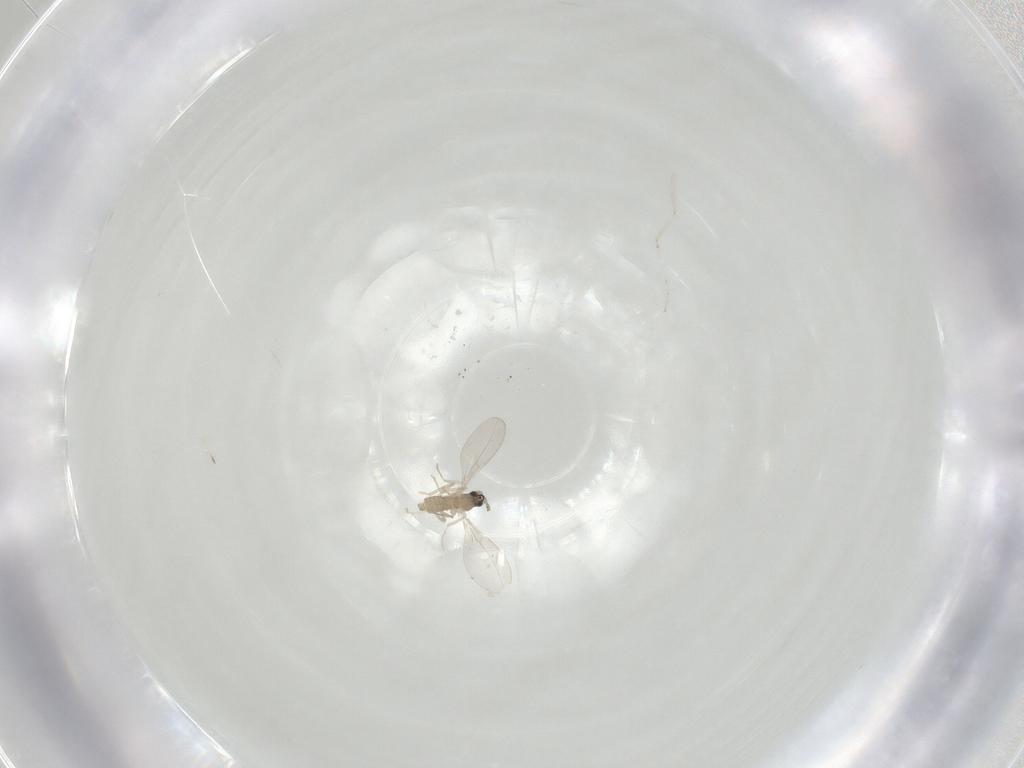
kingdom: Animalia
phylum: Arthropoda
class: Insecta
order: Diptera
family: Cecidomyiidae
